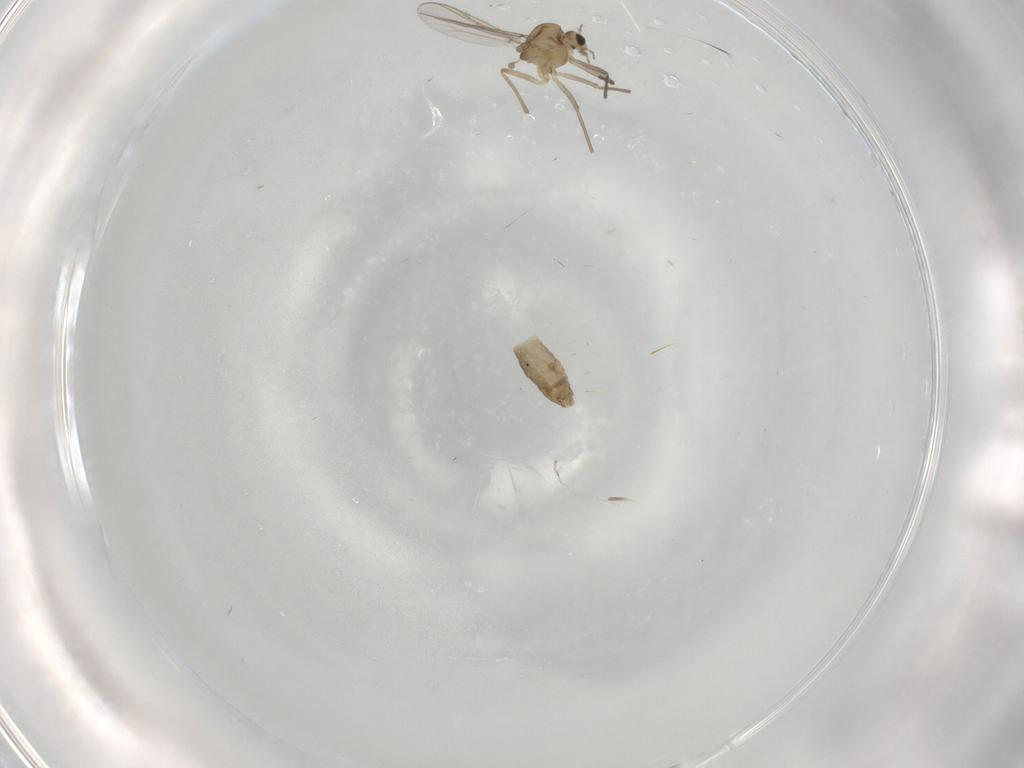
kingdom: Animalia
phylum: Arthropoda
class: Insecta
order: Diptera
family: Chironomidae
